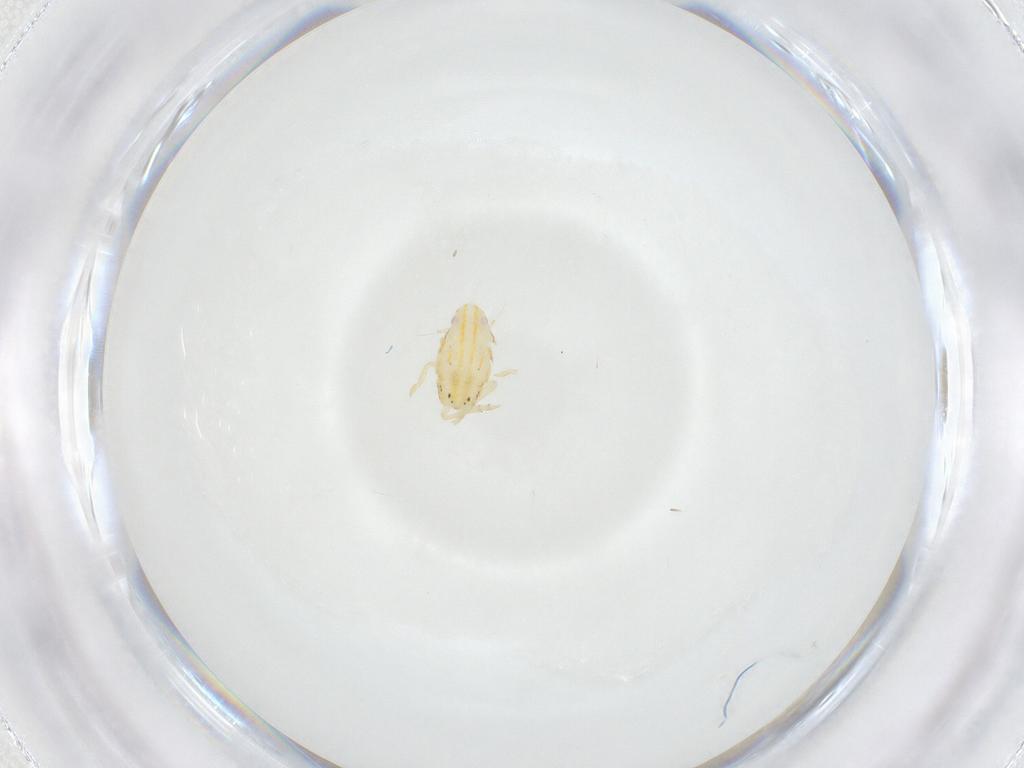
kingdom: Animalia
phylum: Arthropoda
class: Insecta
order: Hemiptera
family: Flatidae
